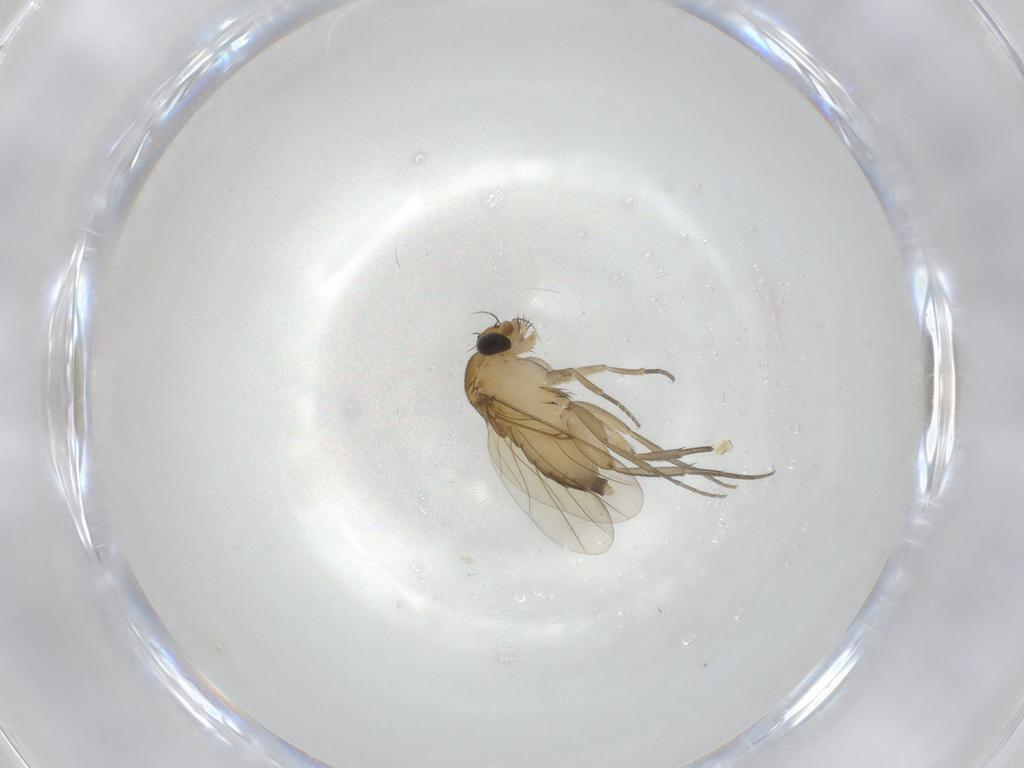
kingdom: Animalia
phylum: Arthropoda
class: Insecta
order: Diptera
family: Phoridae
